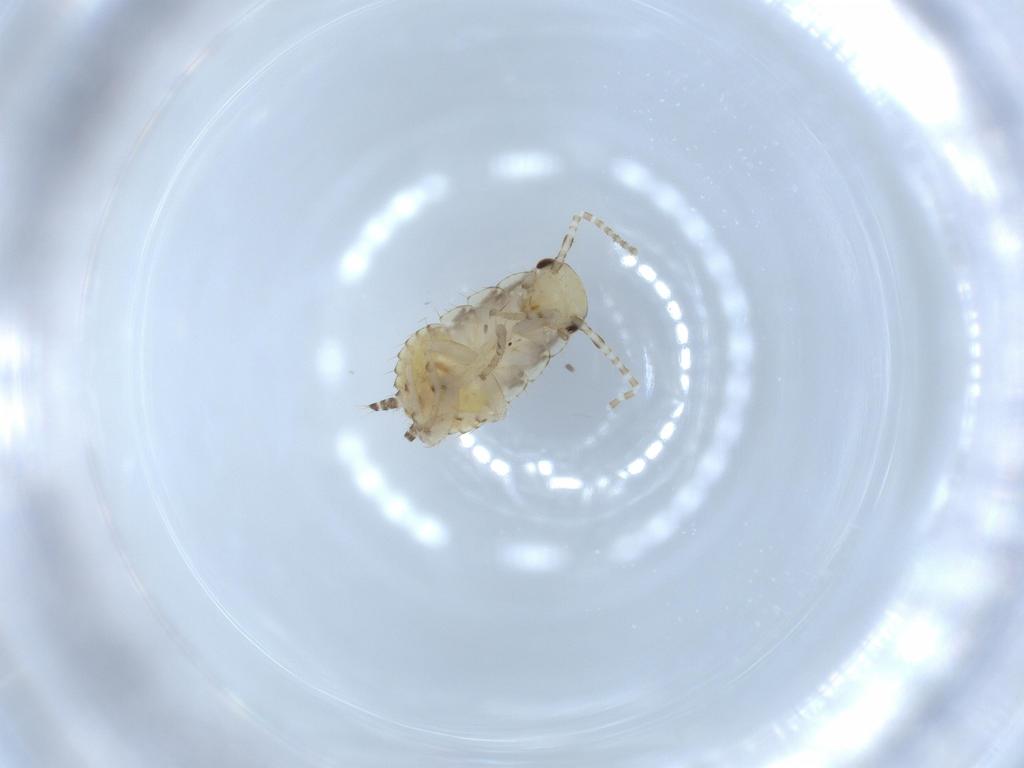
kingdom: Animalia
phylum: Arthropoda
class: Insecta
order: Blattodea
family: Ectobiidae
